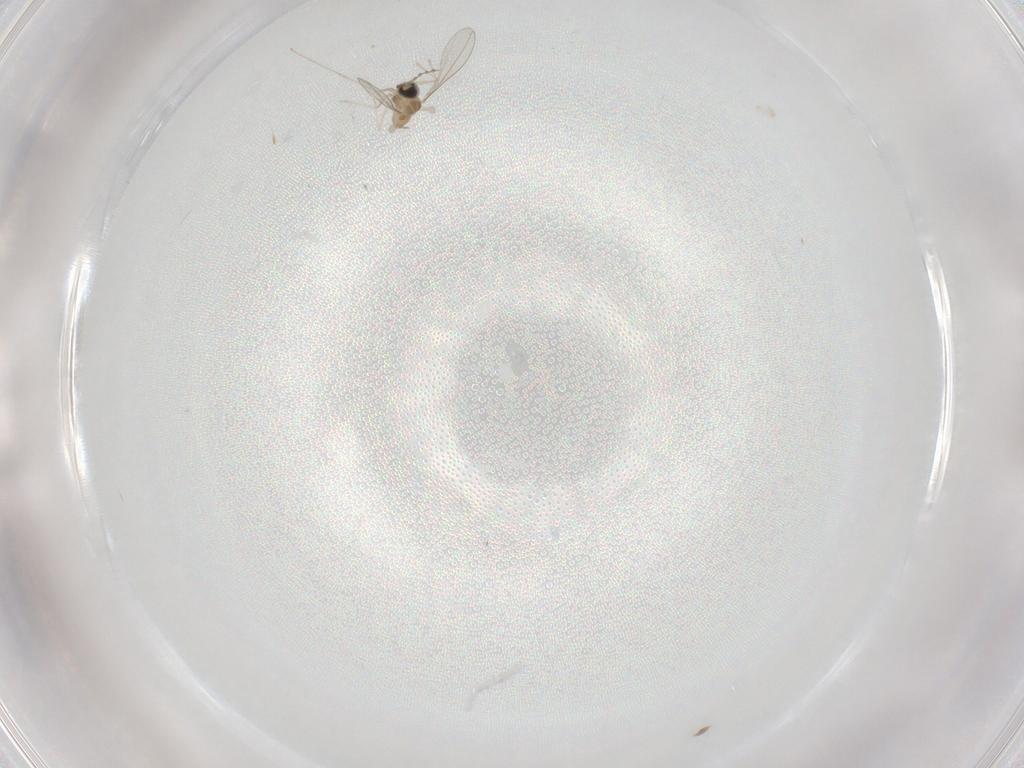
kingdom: Animalia
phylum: Arthropoda
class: Insecta
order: Diptera
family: Cecidomyiidae
